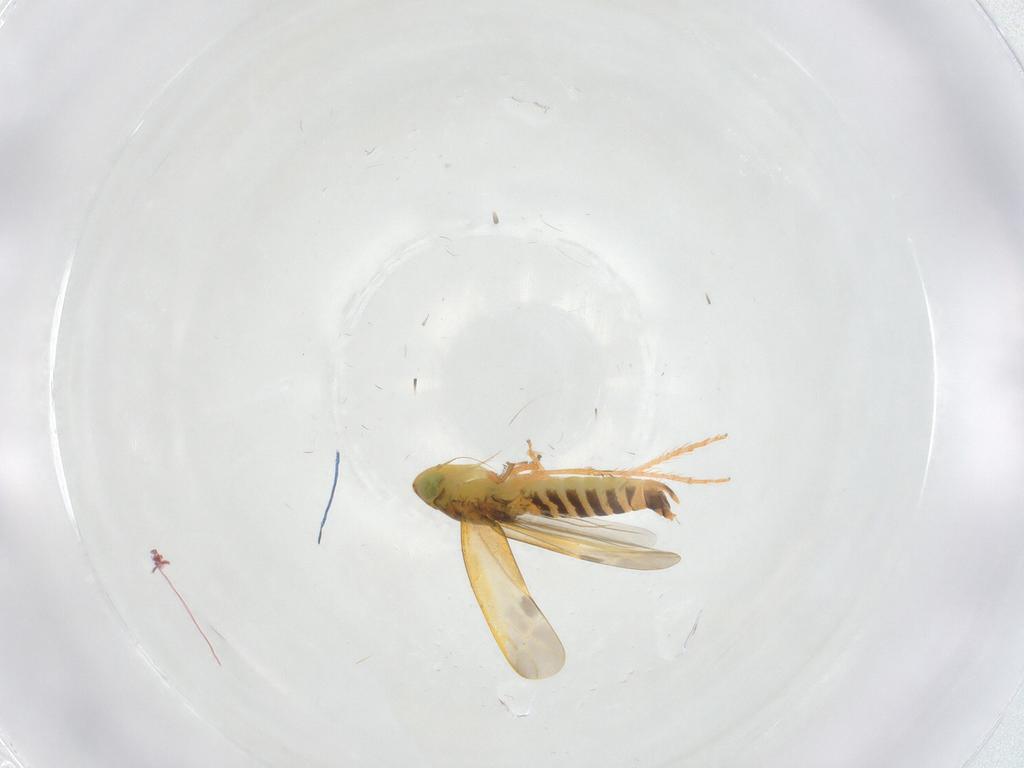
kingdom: Animalia
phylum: Arthropoda
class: Insecta
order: Hemiptera
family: Cicadellidae
